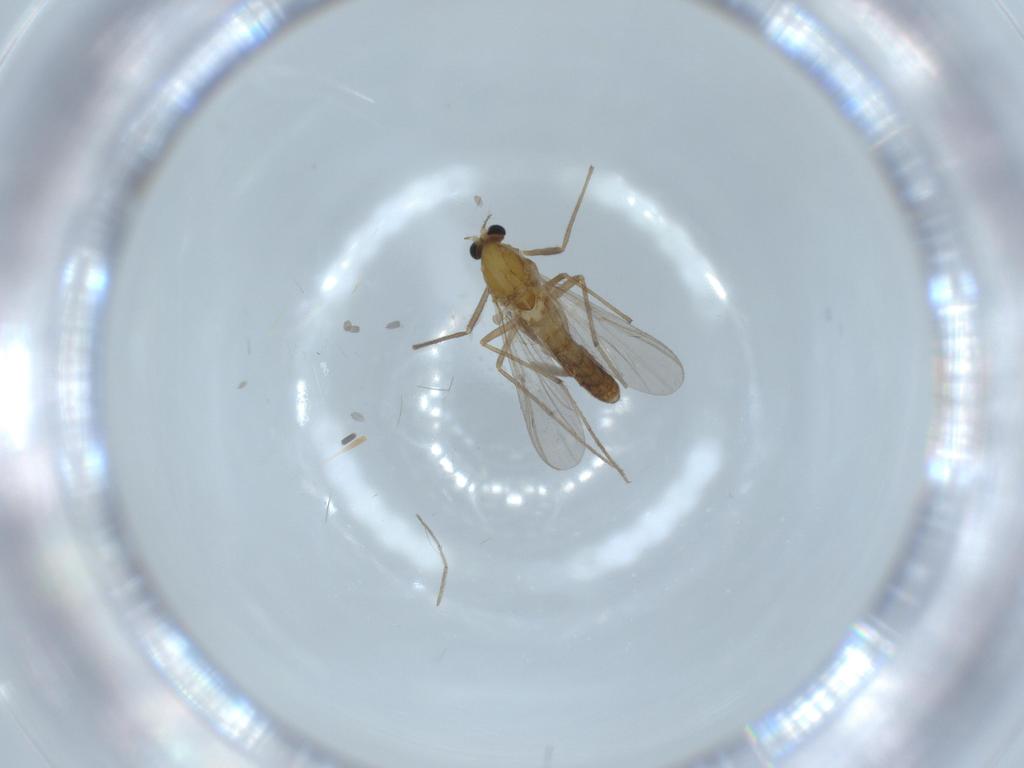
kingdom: Animalia
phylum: Arthropoda
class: Insecta
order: Diptera
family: Chironomidae
